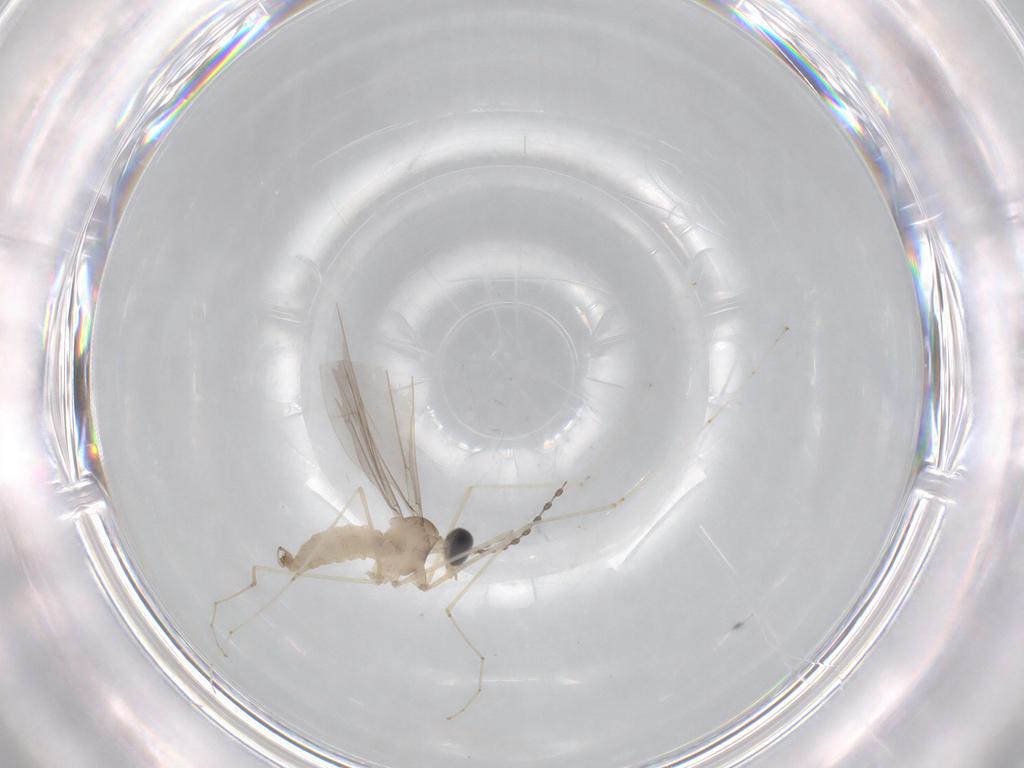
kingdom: Animalia
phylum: Arthropoda
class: Insecta
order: Diptera
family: Cecidomyiidae
